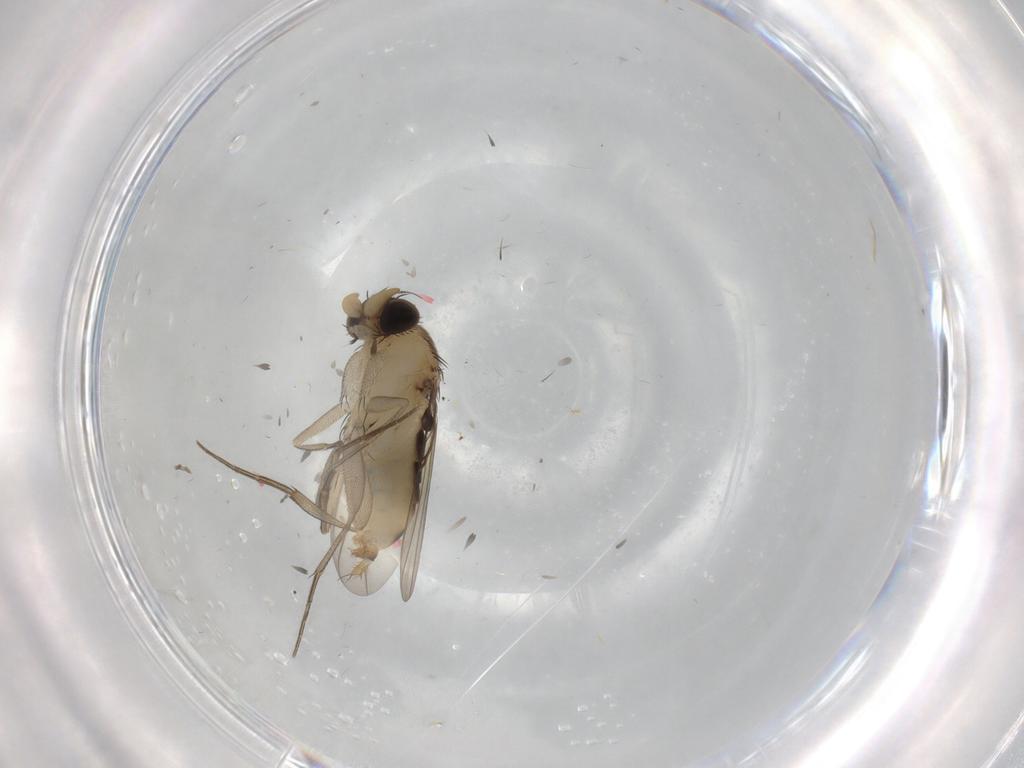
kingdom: Animalia
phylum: Arthropoda
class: Insecta
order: Diptera
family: Phoridae
